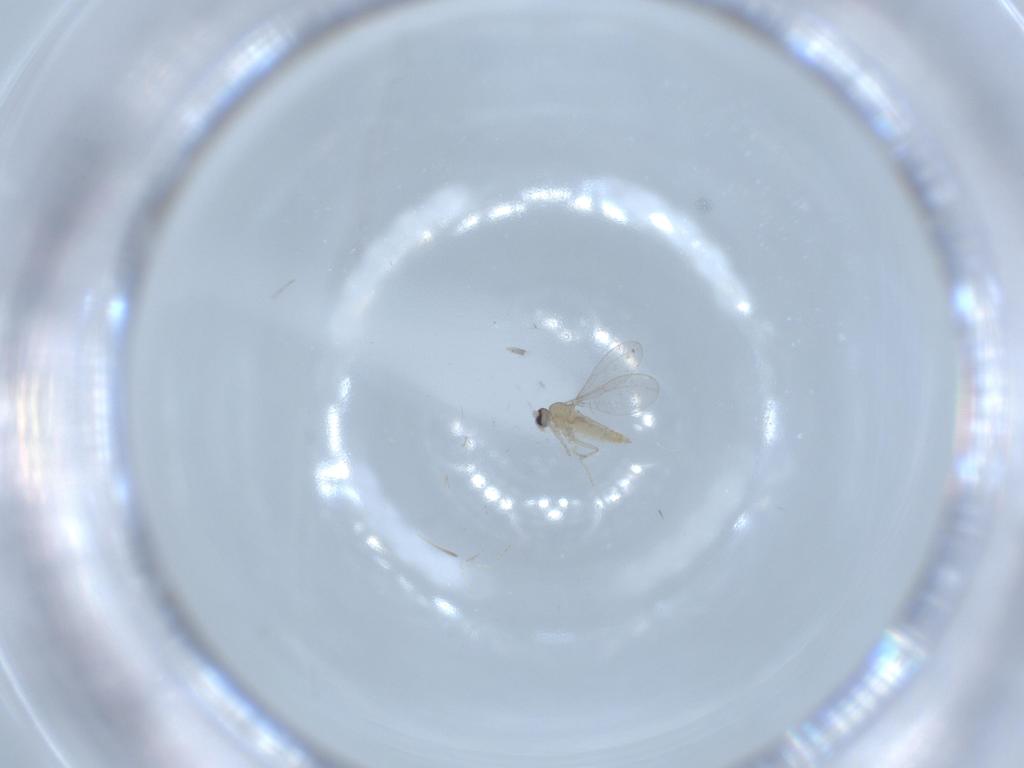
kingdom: Animalia
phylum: Arthropoda
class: Insecta
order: Diptera
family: Cecidomyiidae
